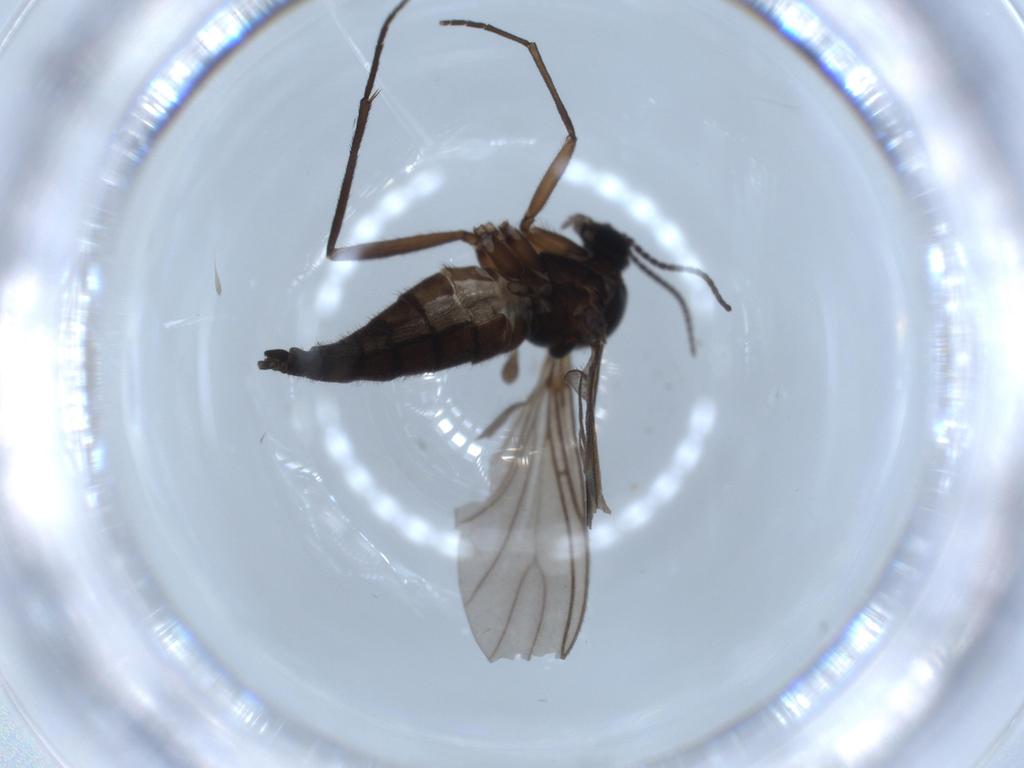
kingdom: Animalia
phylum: Arthropoda
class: Insecta
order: Diptera
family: Sciaridae
